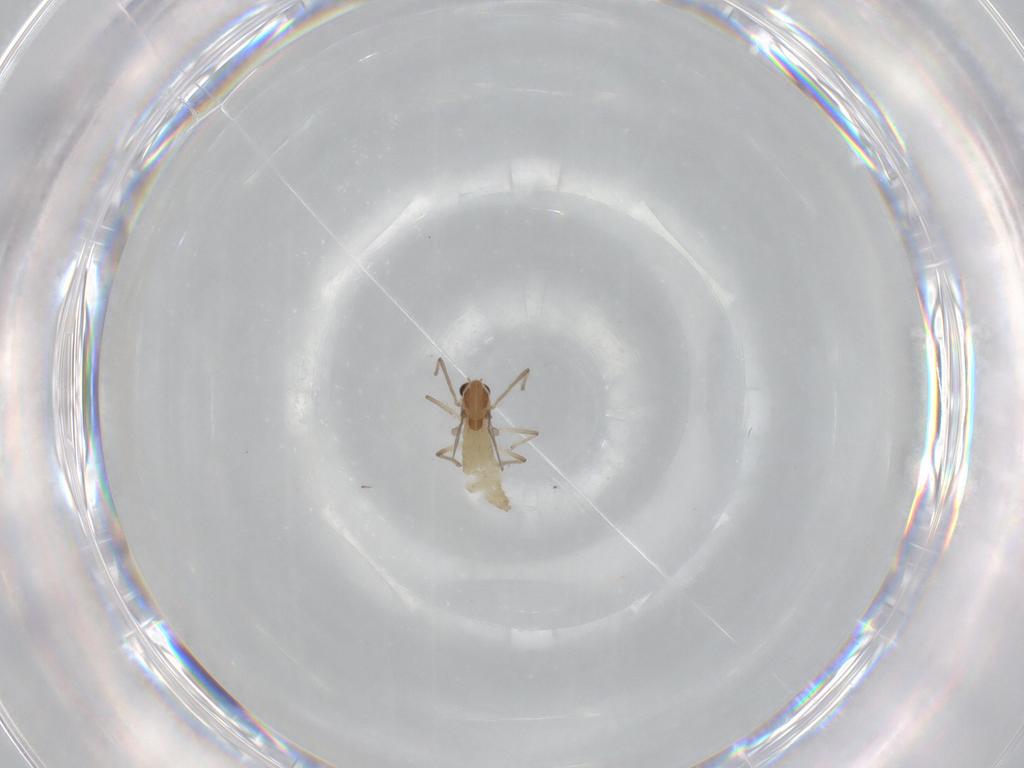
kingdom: Animalia
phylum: Arthropoda
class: Insecta
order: Diptera
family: Chironomidae
